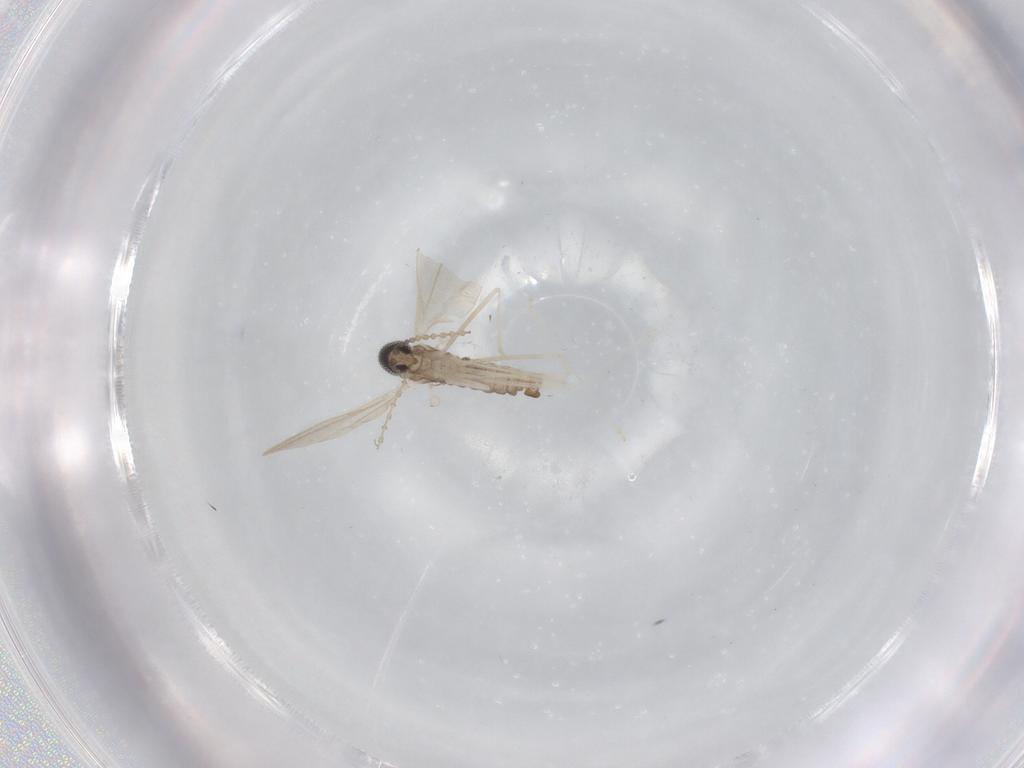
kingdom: Animalia
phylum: Arthropoda
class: Insecta
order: Diptera
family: Cecidomyiidae
